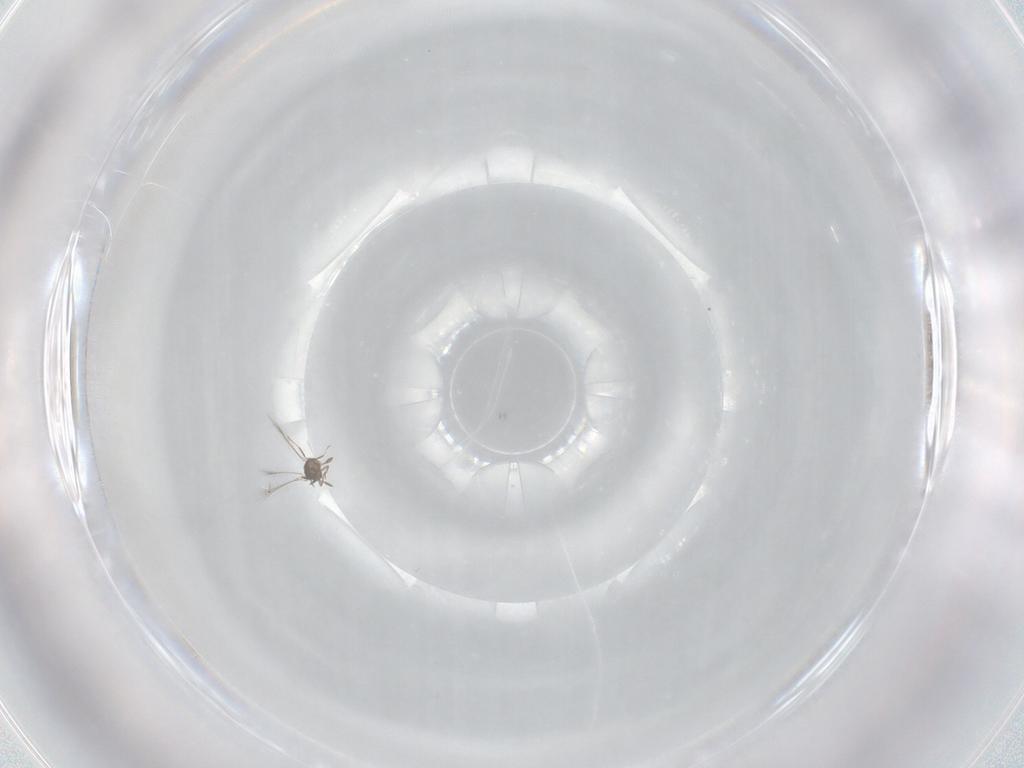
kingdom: Animalia
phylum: Arthropoda
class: Insecta
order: Hymenoptera
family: Mymaridae
